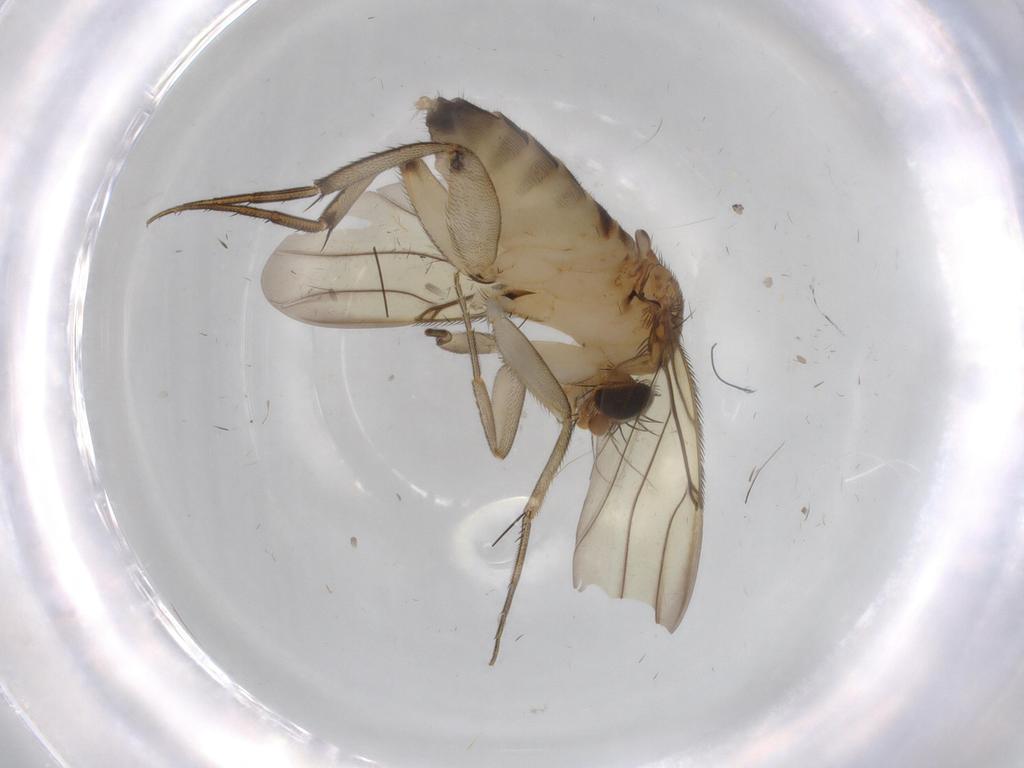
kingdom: Animalia
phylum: Arthropoda
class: Insecta
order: Diptera
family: Phoridae
